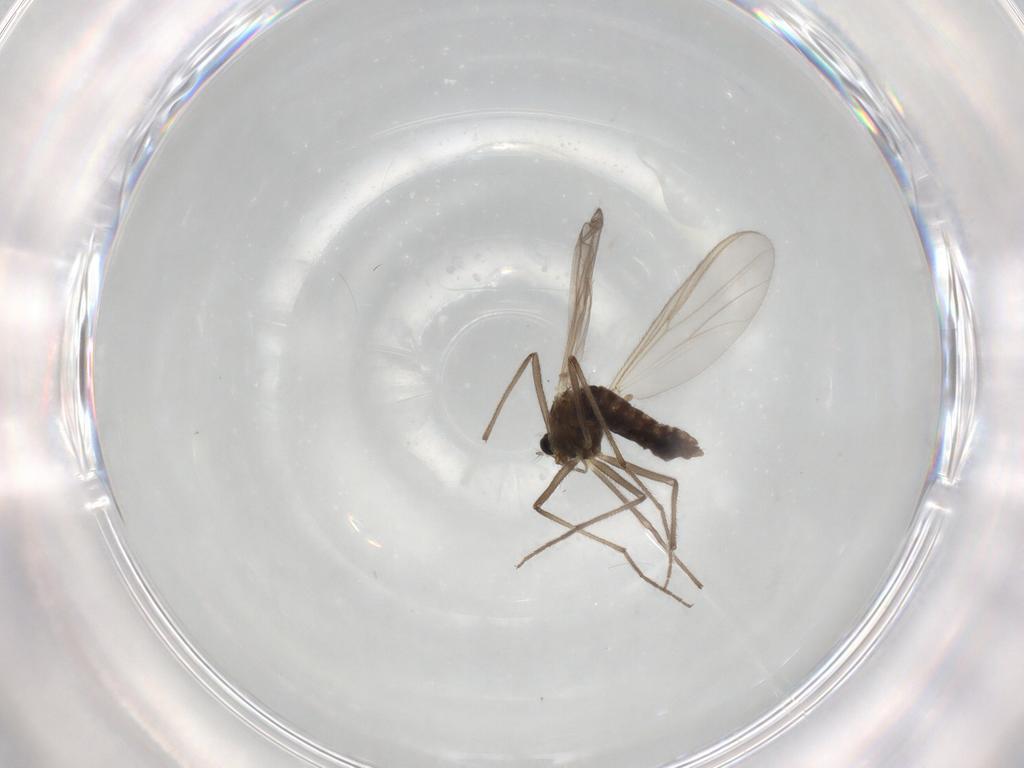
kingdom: Animalia
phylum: Arthropoda
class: Insecta
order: Diptera
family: Chironomidae
